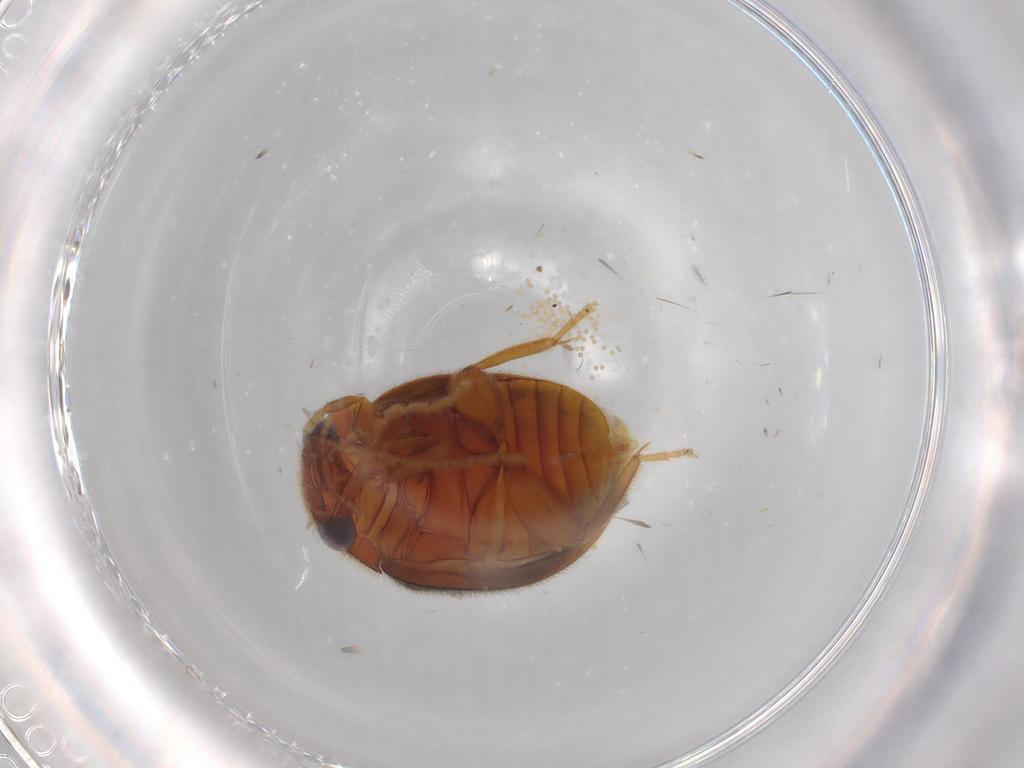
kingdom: Animalia
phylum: Arthropoda
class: Insecta
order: Coleoptera
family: Scirtidae
